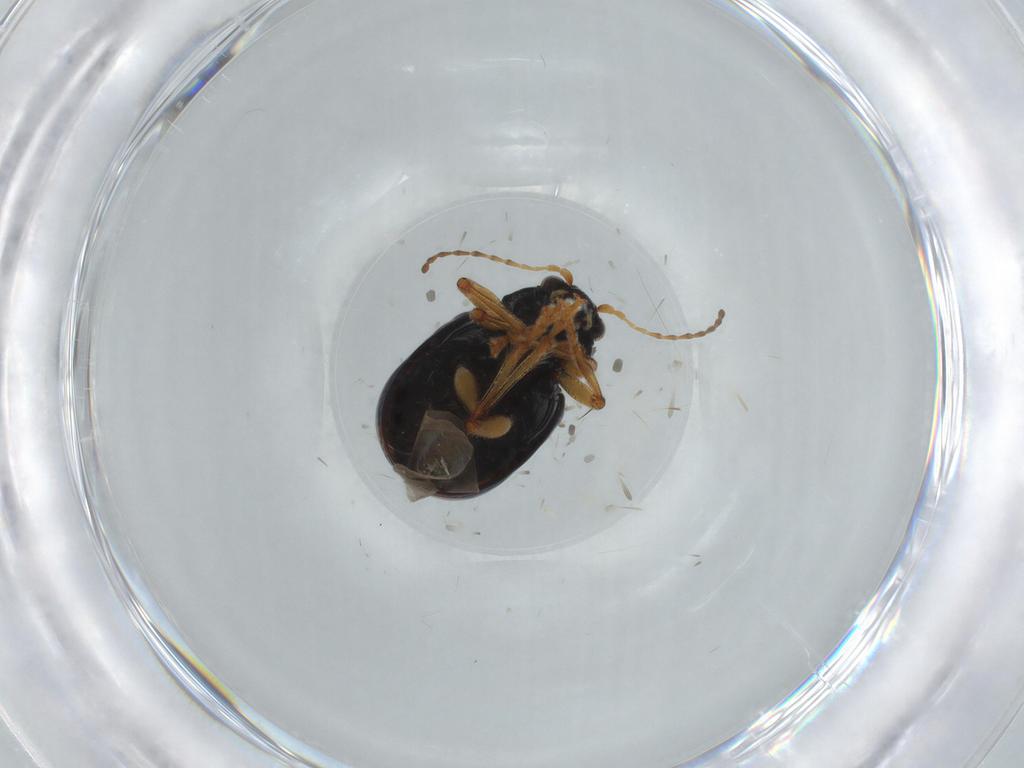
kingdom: Animalia
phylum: Arthropoda
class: Insecta
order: Coleoptera
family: Chrysomelidae
